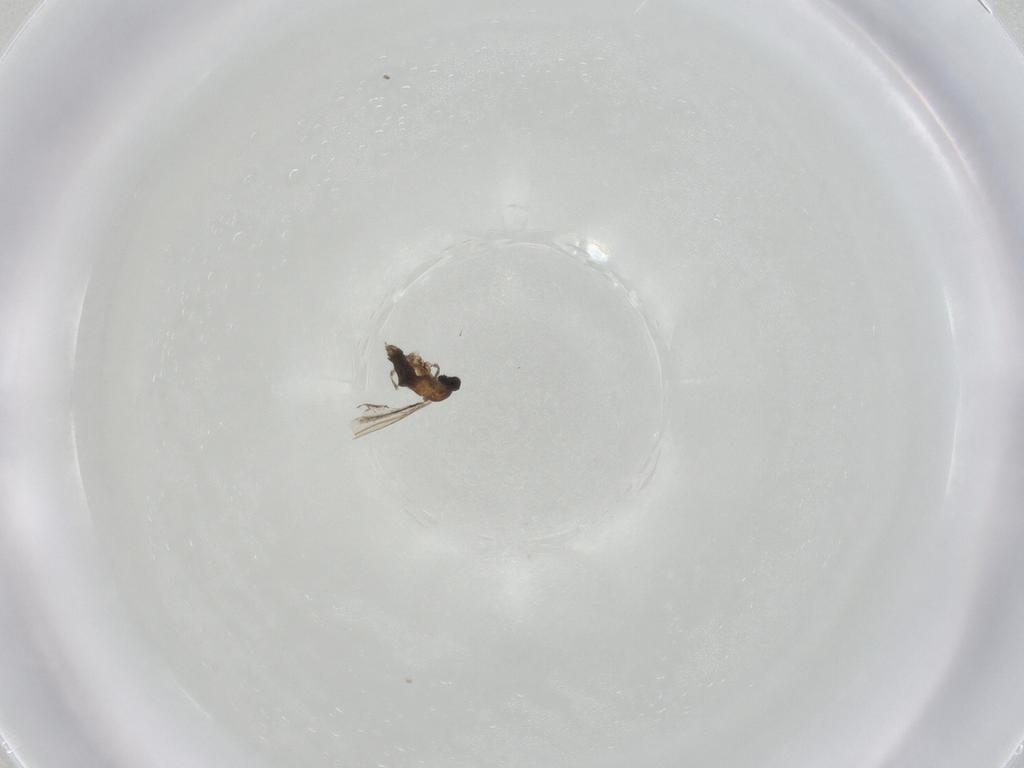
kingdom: Animalia
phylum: Arthropoda
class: Insecta
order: Diptera
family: Cecidomyiidae
